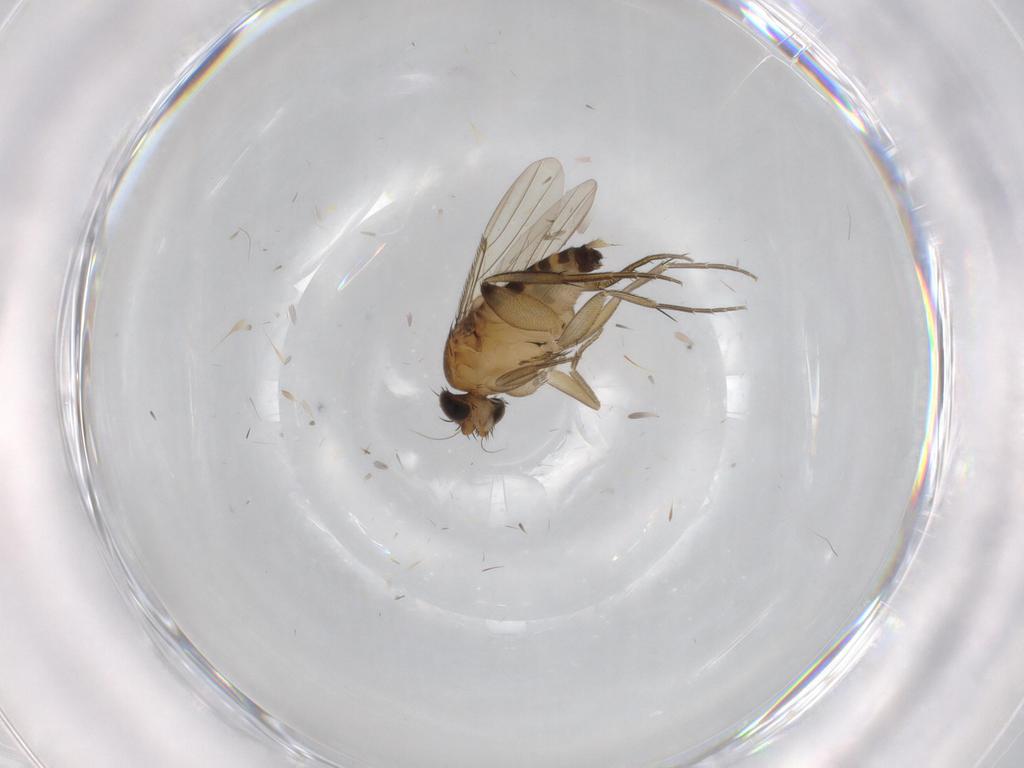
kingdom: Animalia
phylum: Arthropoda
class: Insecta
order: Diptera
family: Phoridae
